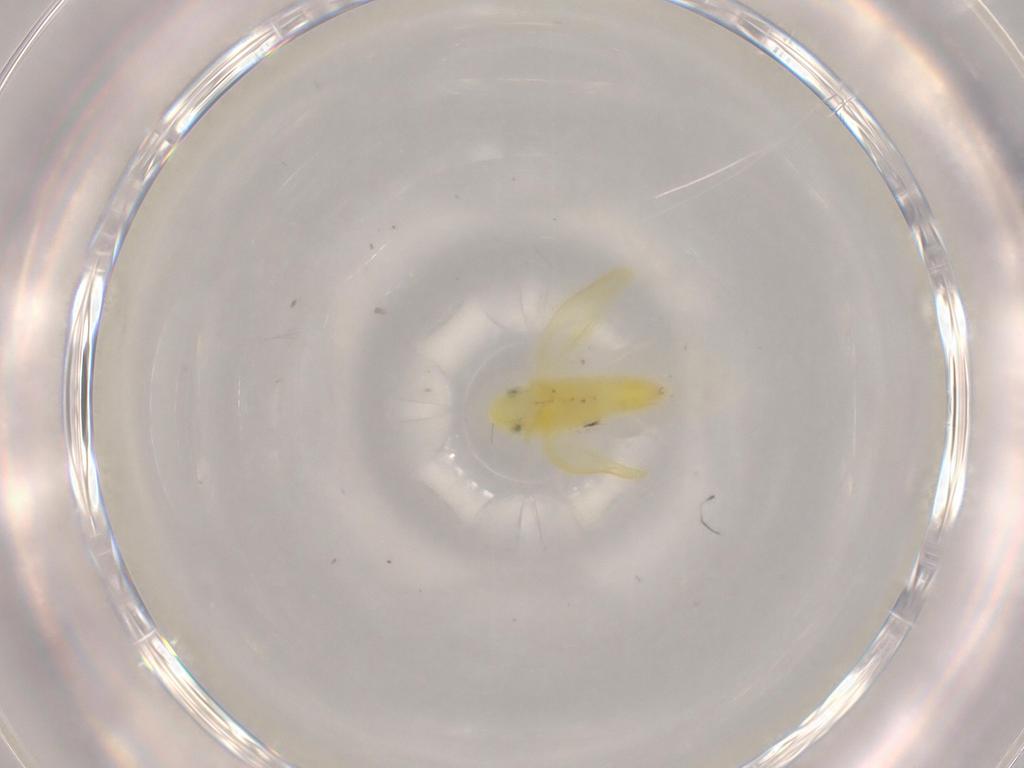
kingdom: Animalia
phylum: Arthropoda
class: Insecta
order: Hemiptera
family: Cicadellidae
